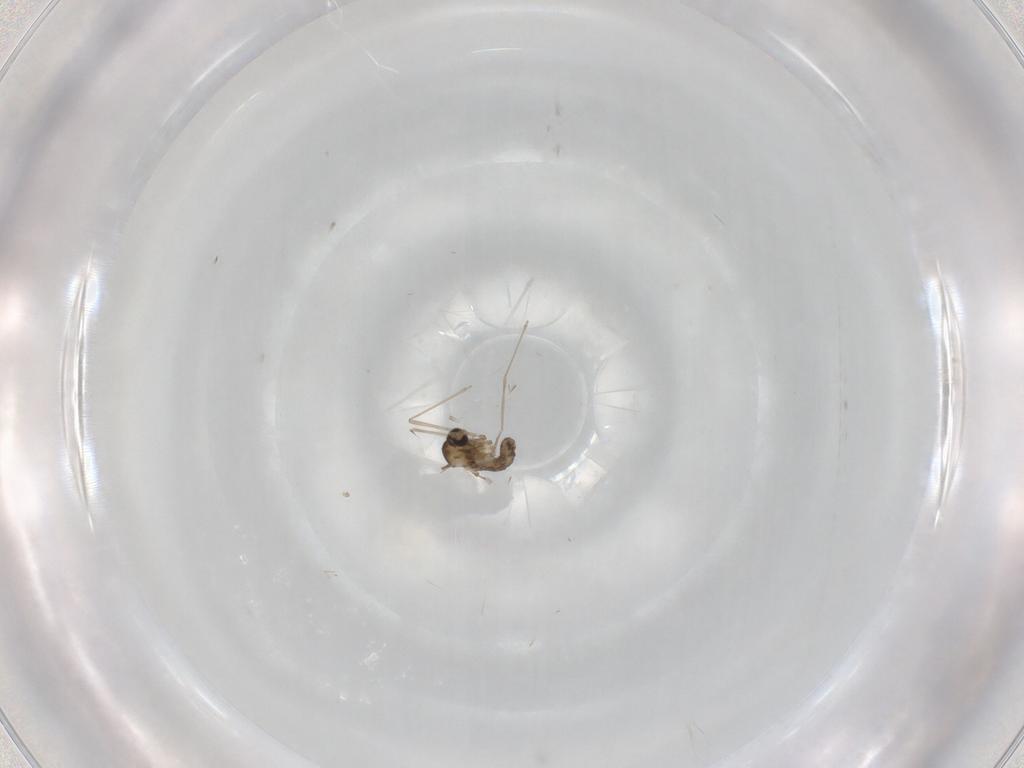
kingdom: Animalia
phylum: Arthropoda
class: Insecta
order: Diptera
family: Cecidomyiidae
